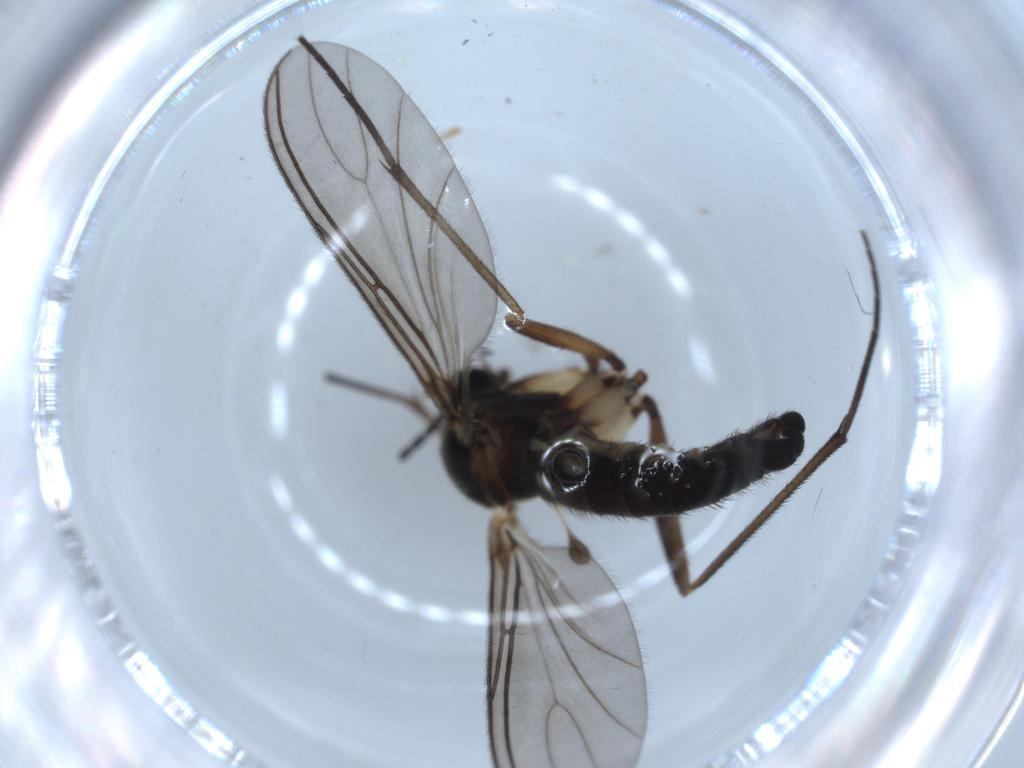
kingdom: Animalia
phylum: Arthropoda
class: Insecta
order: Diptera
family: Sciaridae
